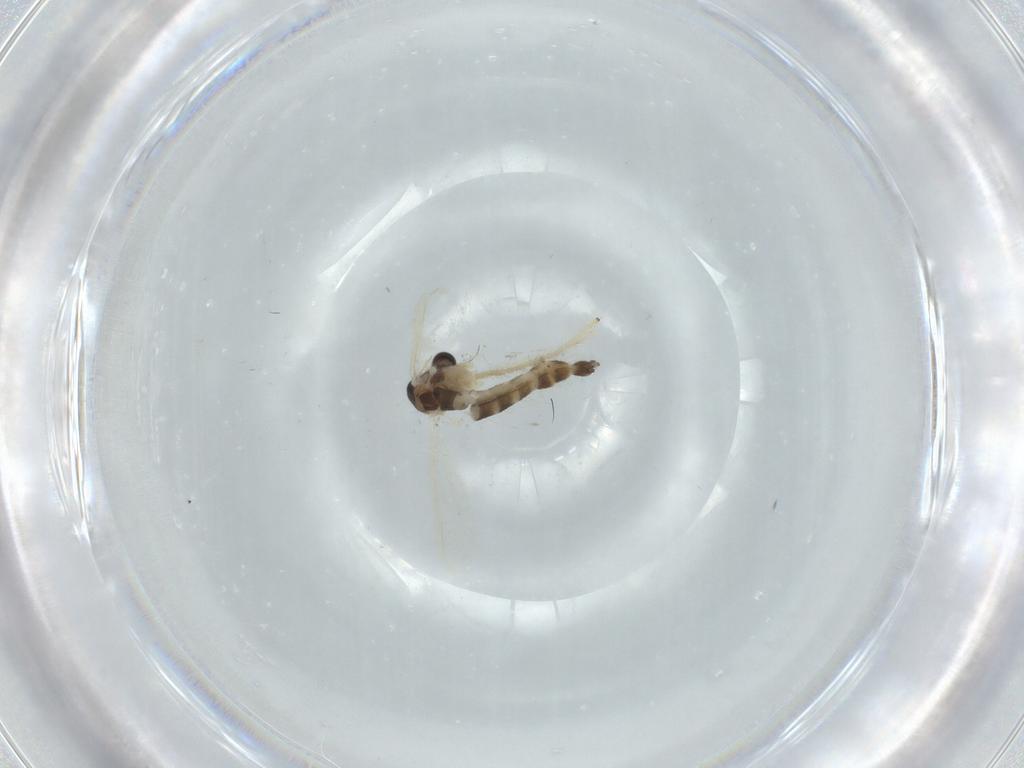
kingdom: Animalia
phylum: Arthropoda
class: Insecta
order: Diptera
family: Chironomidae
